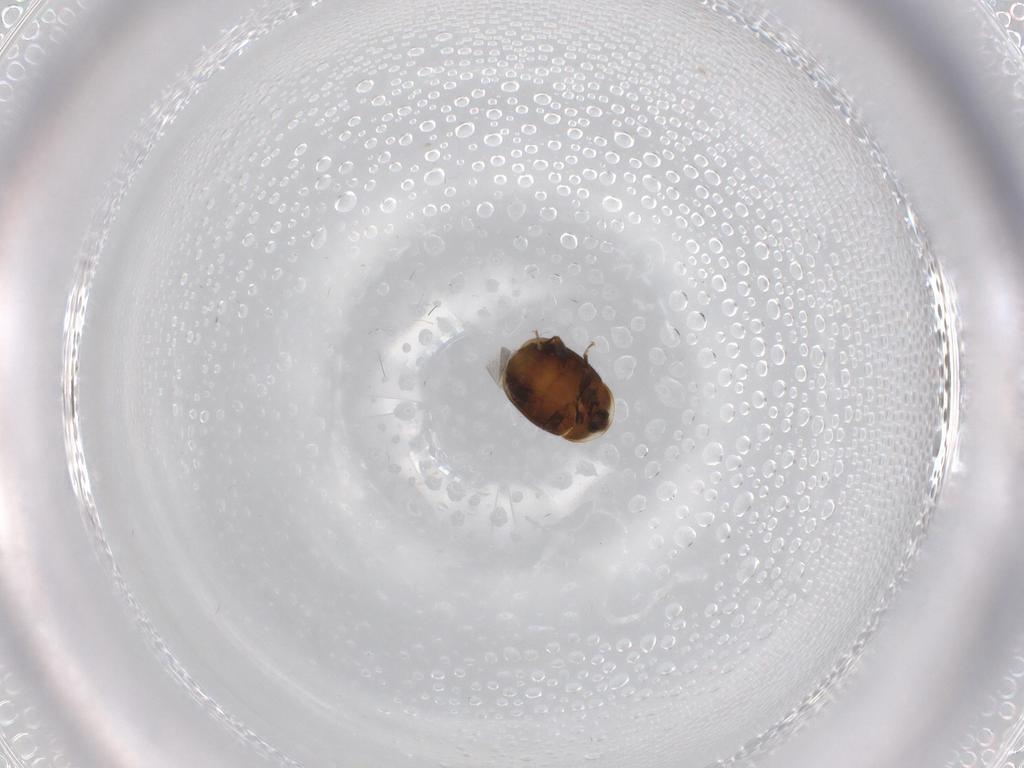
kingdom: Animalia
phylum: Arthropoda
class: Insecta
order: Coleoptera
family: Corylophidae
